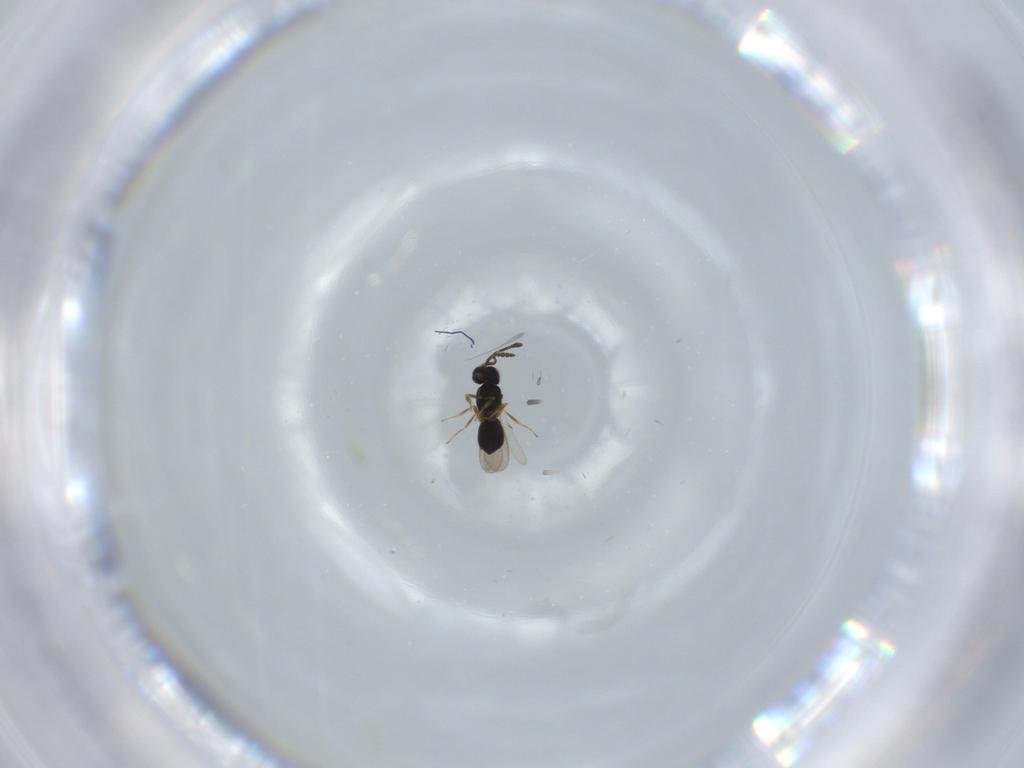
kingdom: Animalia
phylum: Arthropoda
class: Insecta
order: Hymenoptera
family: Scelionidae
